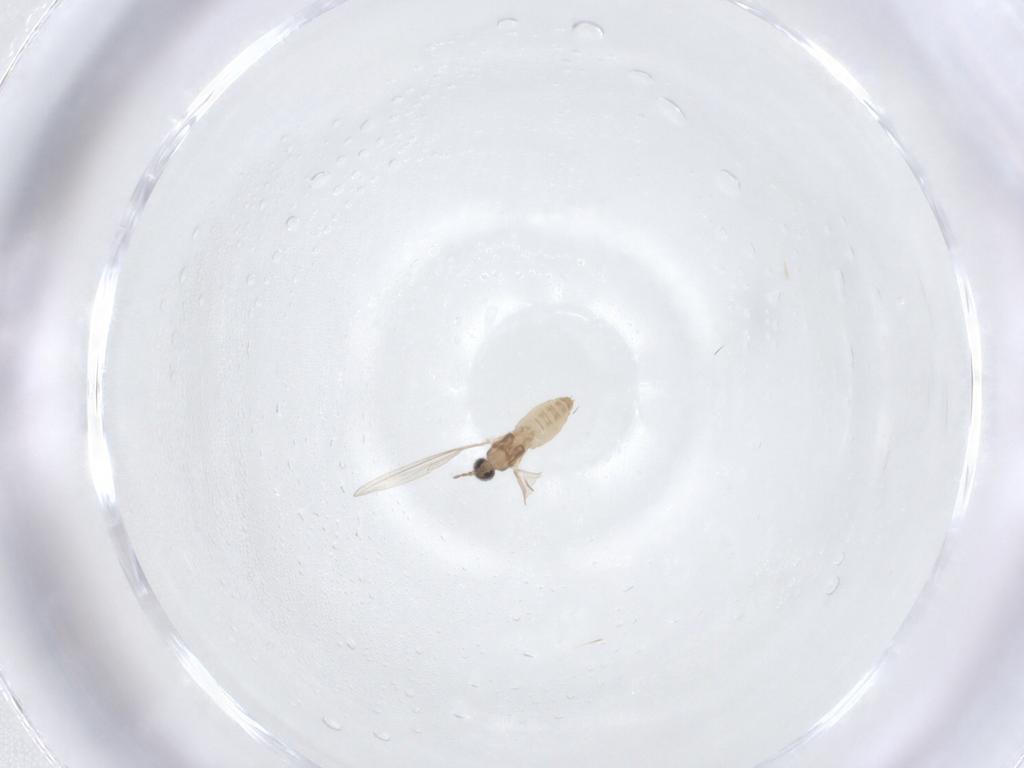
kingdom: Animalia
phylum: Arthropoda
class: Insecta
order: Diptera
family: Cecidomyiidae
